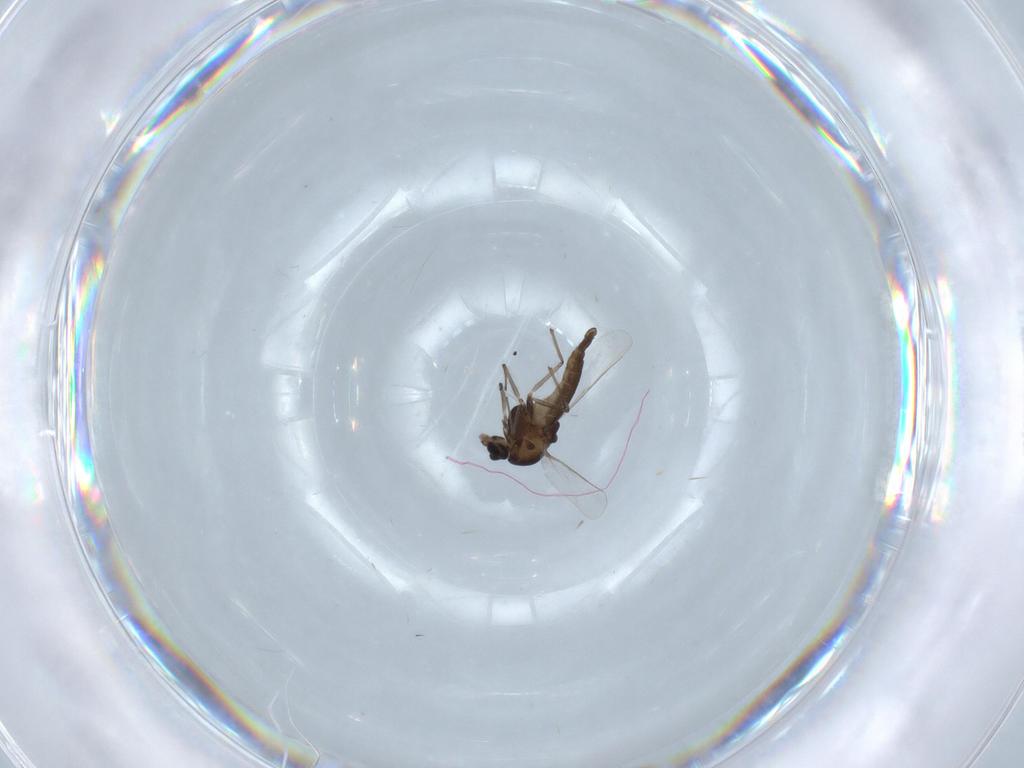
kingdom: Animalia
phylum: Arthropoda
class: Insecta
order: Diptera
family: Chironomidae
